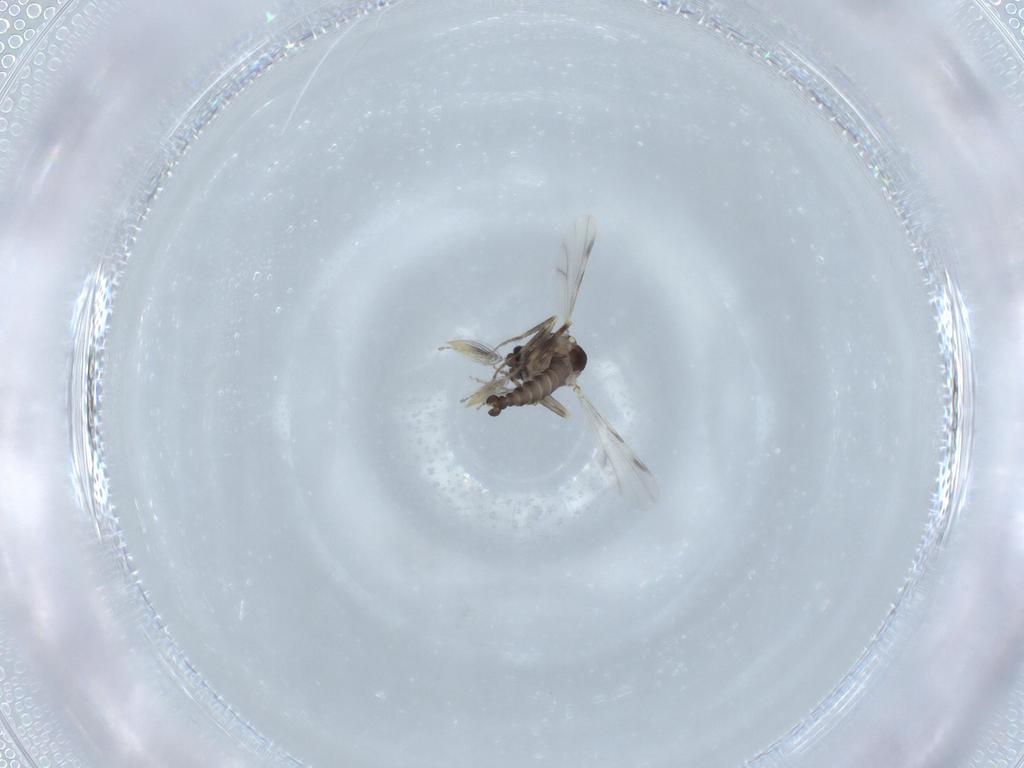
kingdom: Animalia
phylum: Arthropoda
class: Insecta
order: Diptera
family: Ceratopogonidae
